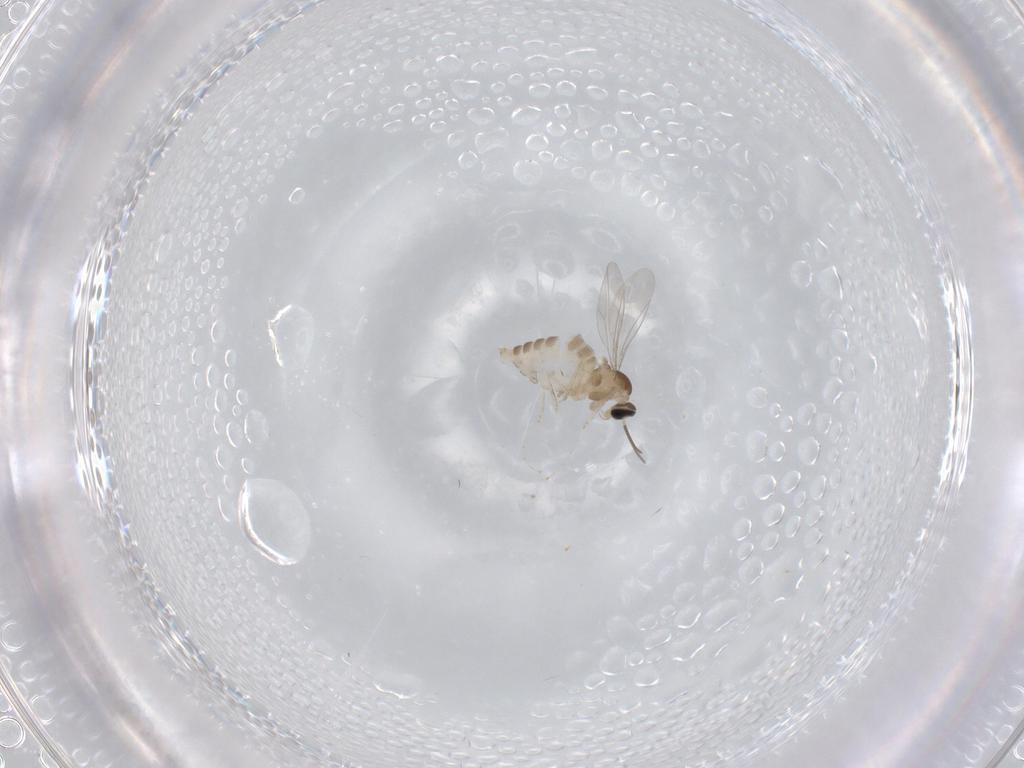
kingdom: Animalia
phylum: Arthropoda
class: Insecta
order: Diptera
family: Cecidomyiidae
